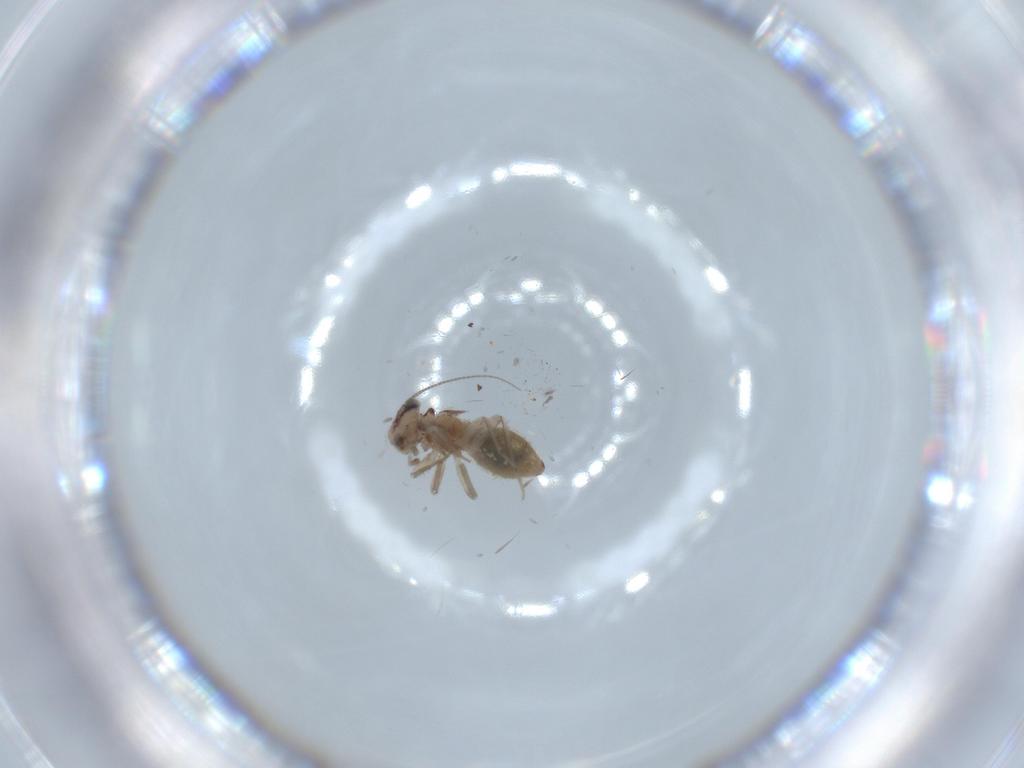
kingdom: Animalia
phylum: Arthropoda
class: Insecta
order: Psocodea
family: Lepidopsocidae
